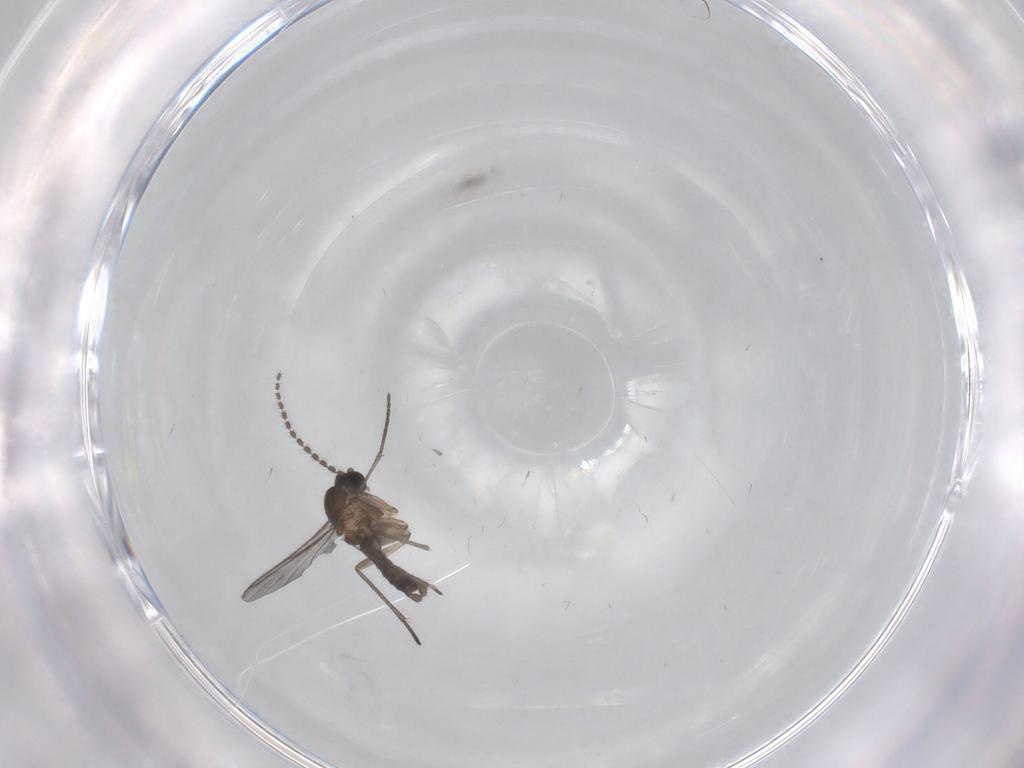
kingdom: Animalia
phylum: Arthropoda
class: Insecta
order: Diptera
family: Sciaridae
